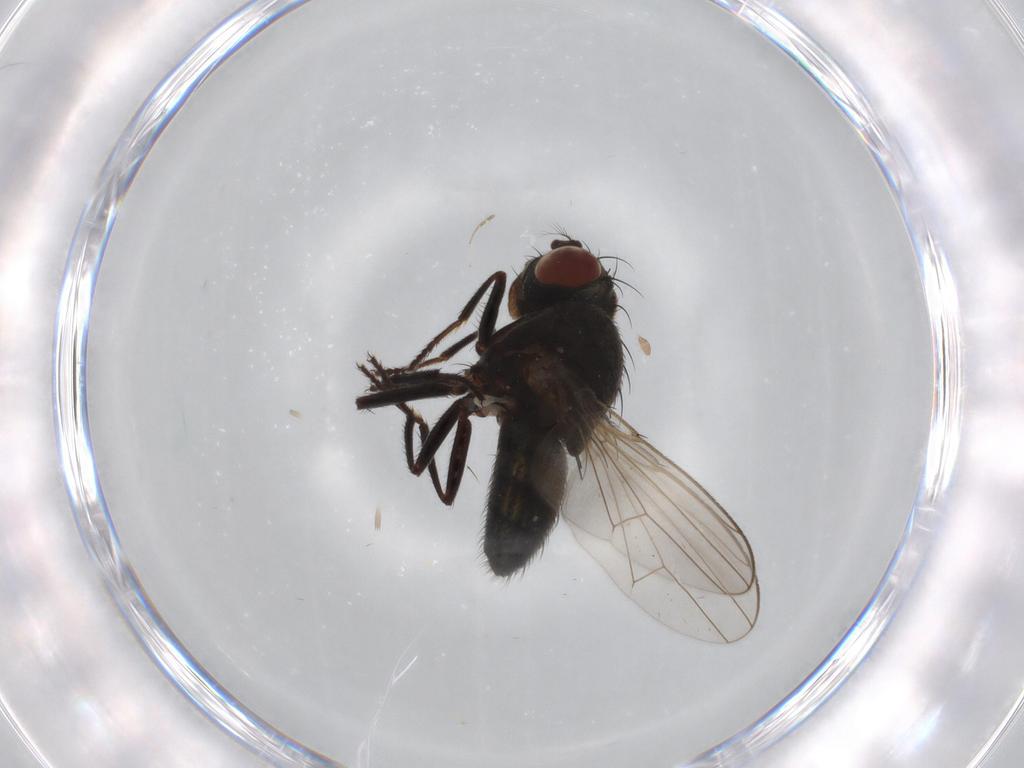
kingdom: Animalia
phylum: Arthropoda
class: Insecta
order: Diptera
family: Ephydridae
